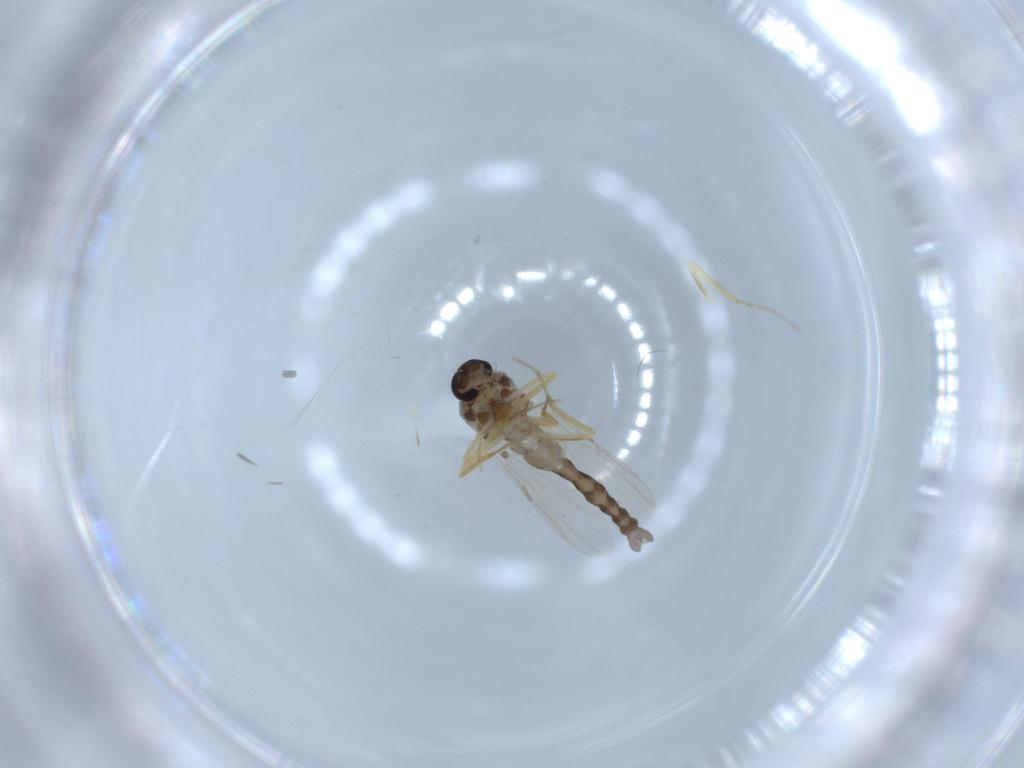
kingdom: Animalia
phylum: Arthropoda
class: Insecta
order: Diptera
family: Ceratopogonidae
